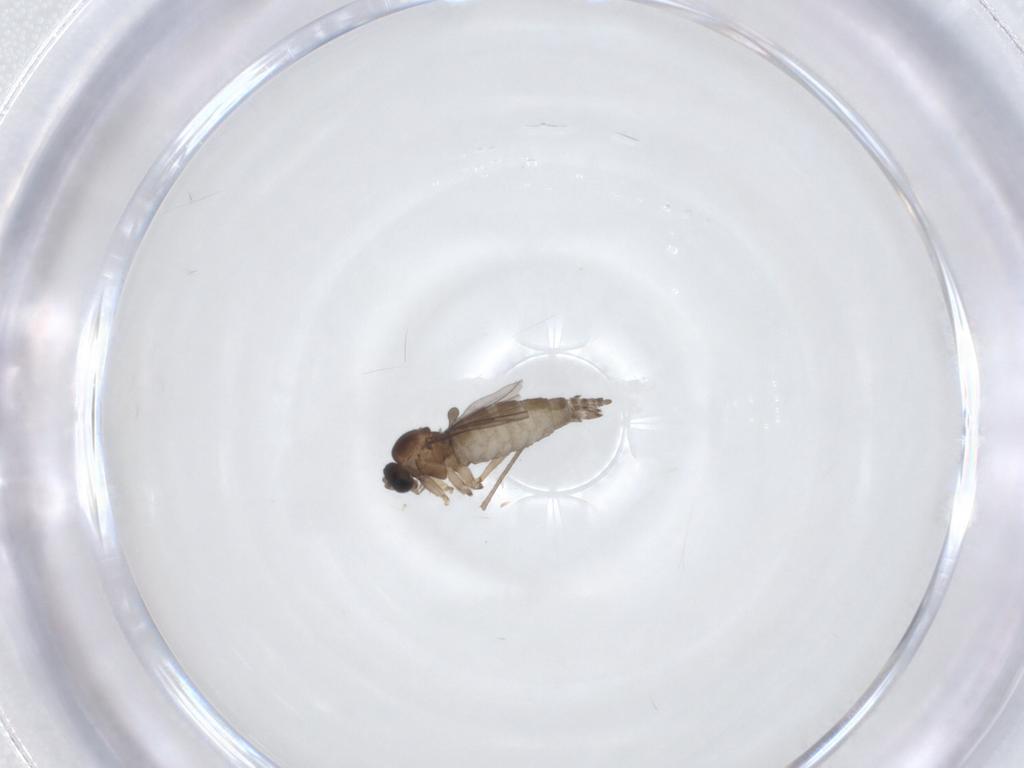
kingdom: Animalia
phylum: Arthropoda
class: Insecta
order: Diptera
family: Sciaridae
